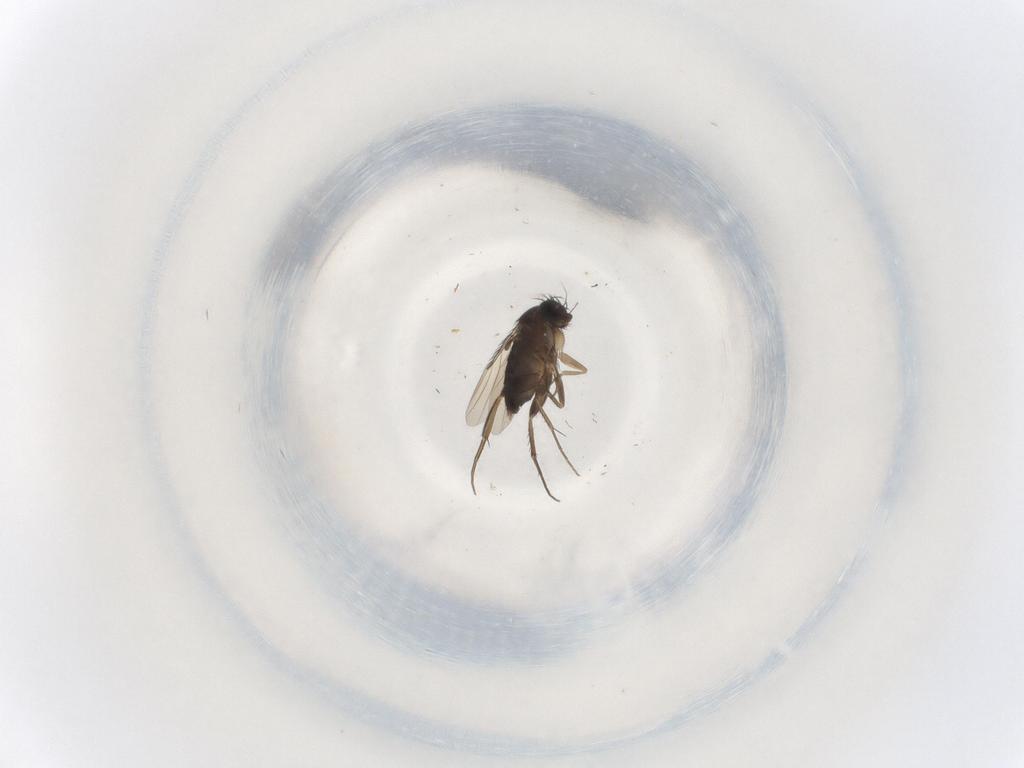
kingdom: Animalia
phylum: Arthropoda
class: Insecta
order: Diptera
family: Phoridae
